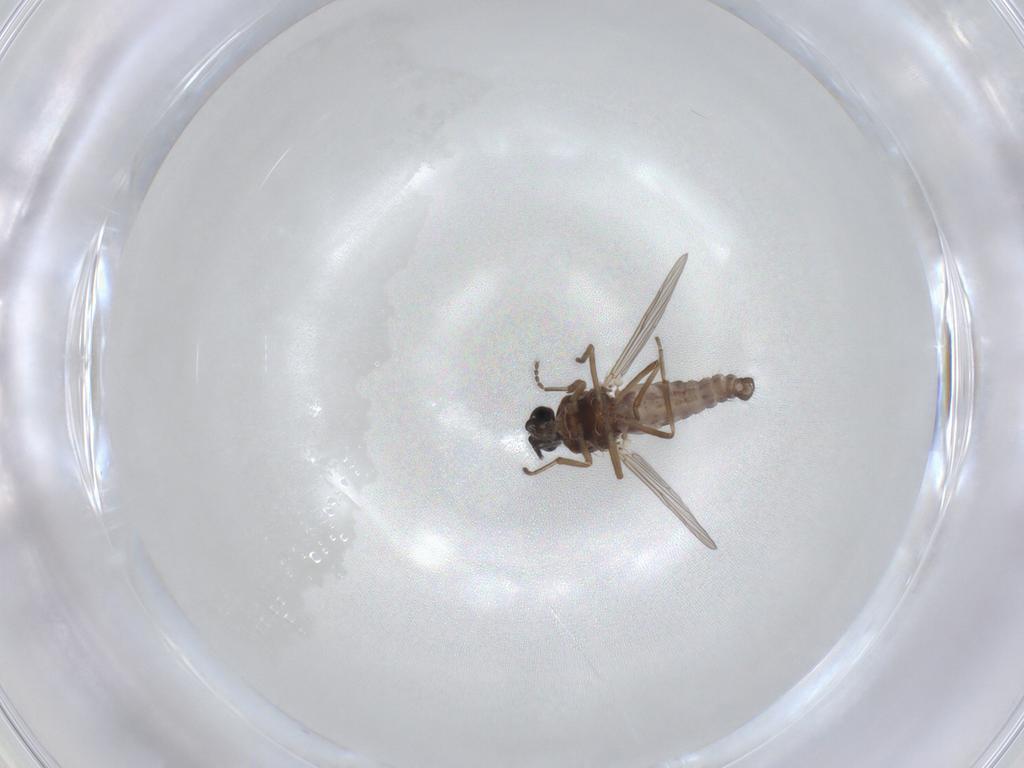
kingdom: Animalia
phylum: Arthropoda
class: Insecta
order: Diptera
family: Ceratopogonidae
